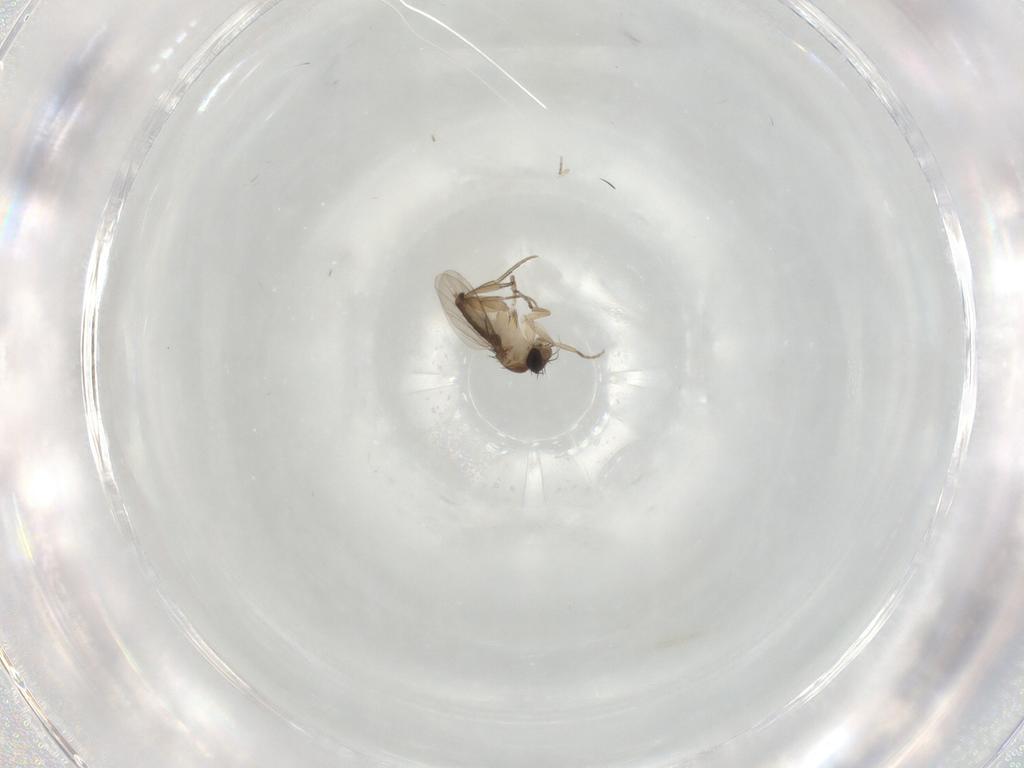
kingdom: Animalia
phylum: Arthropoda
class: Insecta
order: Diptera
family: Phoridae
